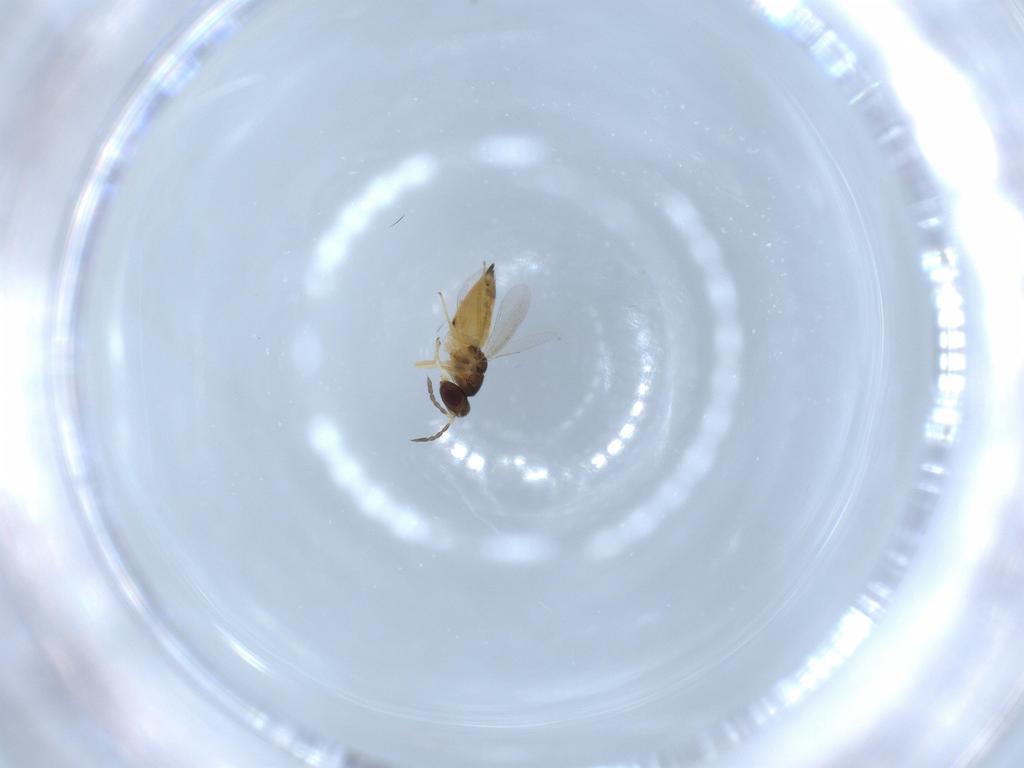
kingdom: Animalia
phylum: Arthropoda
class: Insecta
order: Hymenoptera
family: Eulophidae
